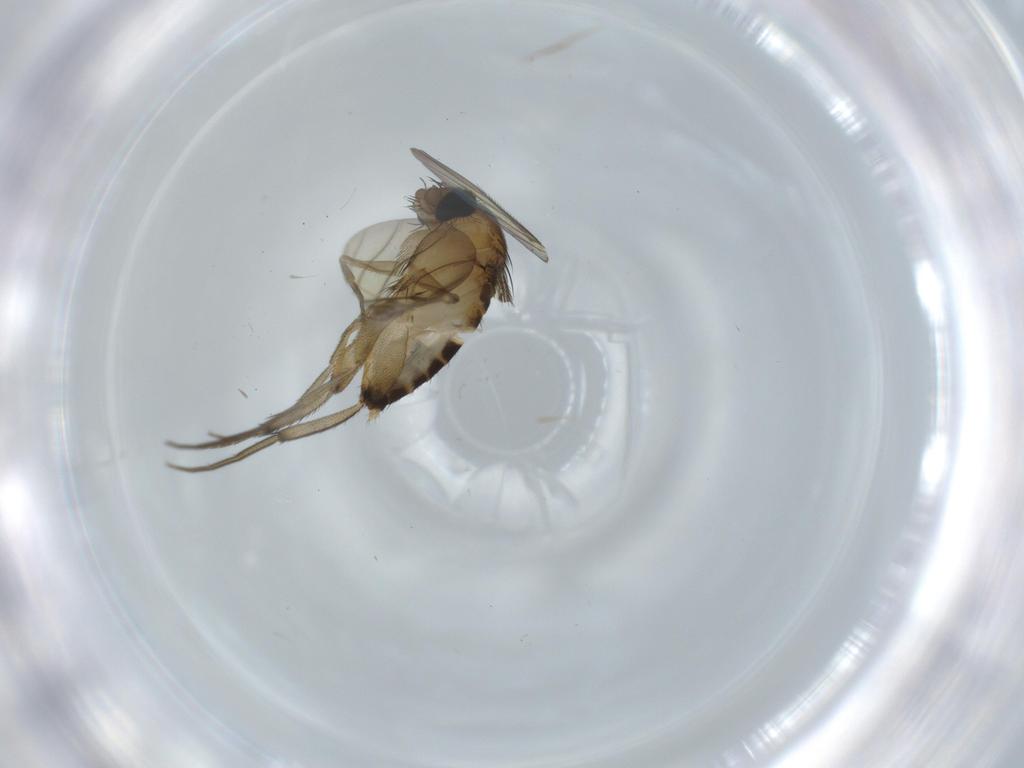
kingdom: Animalia
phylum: Arthropoda
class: Insecta
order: Diptera
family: Phoridae
